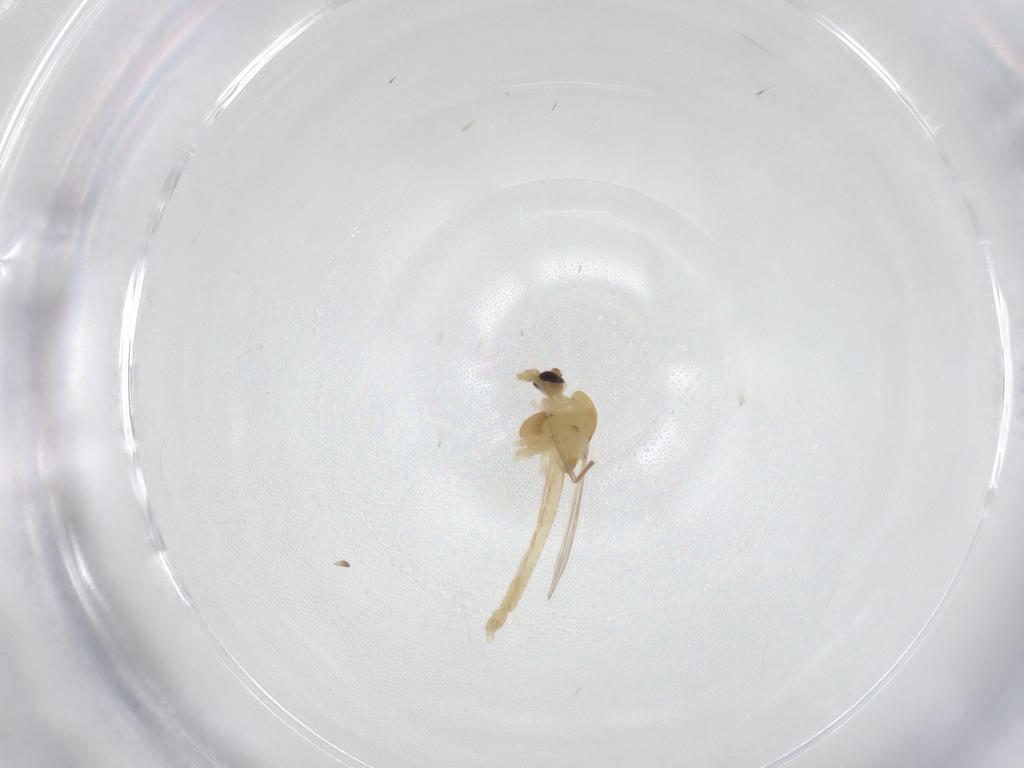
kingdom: Animalia
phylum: Arthropoda
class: Insecta
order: Diptera
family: Chironomidae
